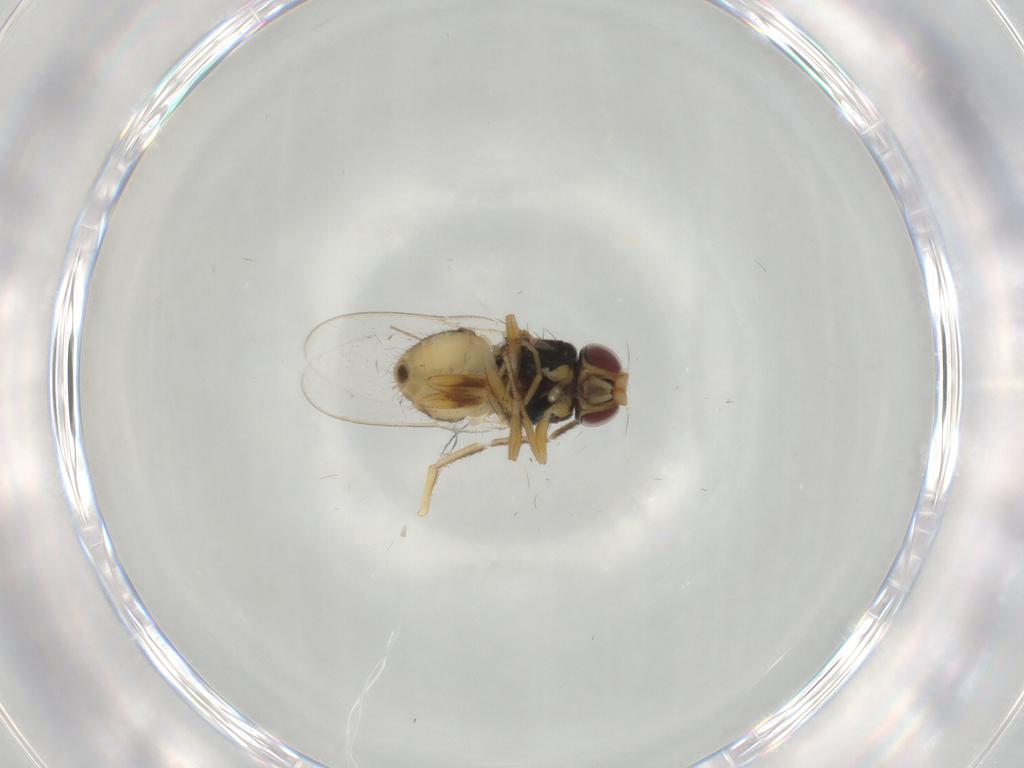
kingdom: Animalia
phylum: Arthropoda
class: Insecta
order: Diptera
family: Chloropidae
